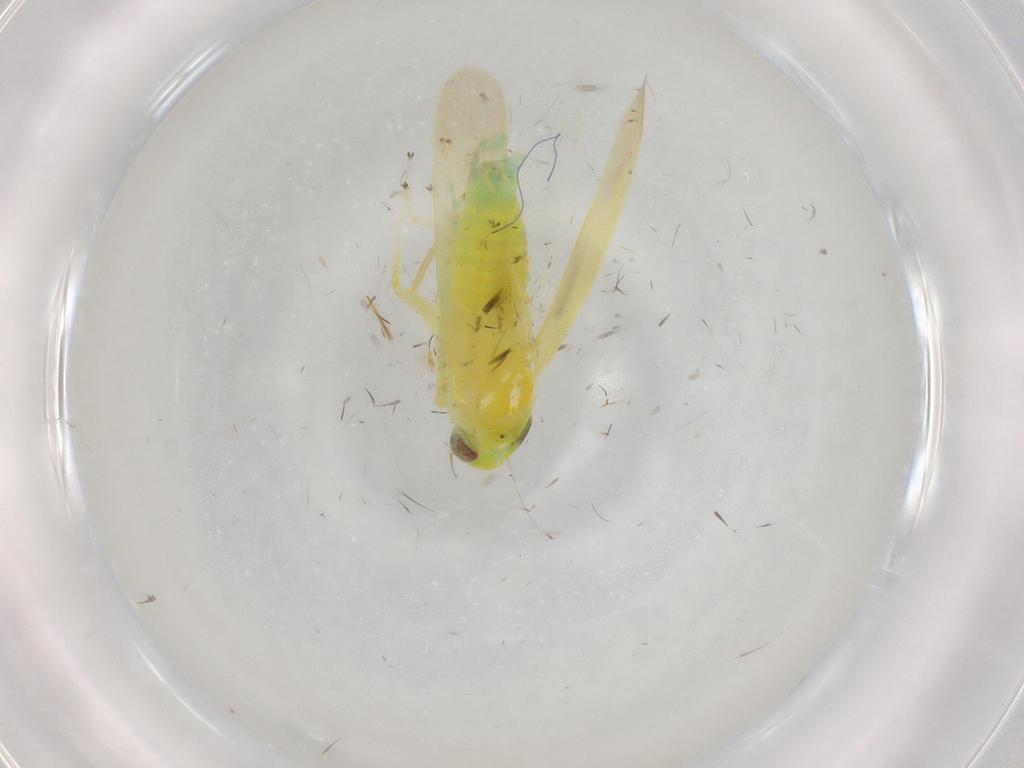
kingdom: Animalia
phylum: Arthropoda
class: Insecta
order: Hemiptera
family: Cicadellidae
